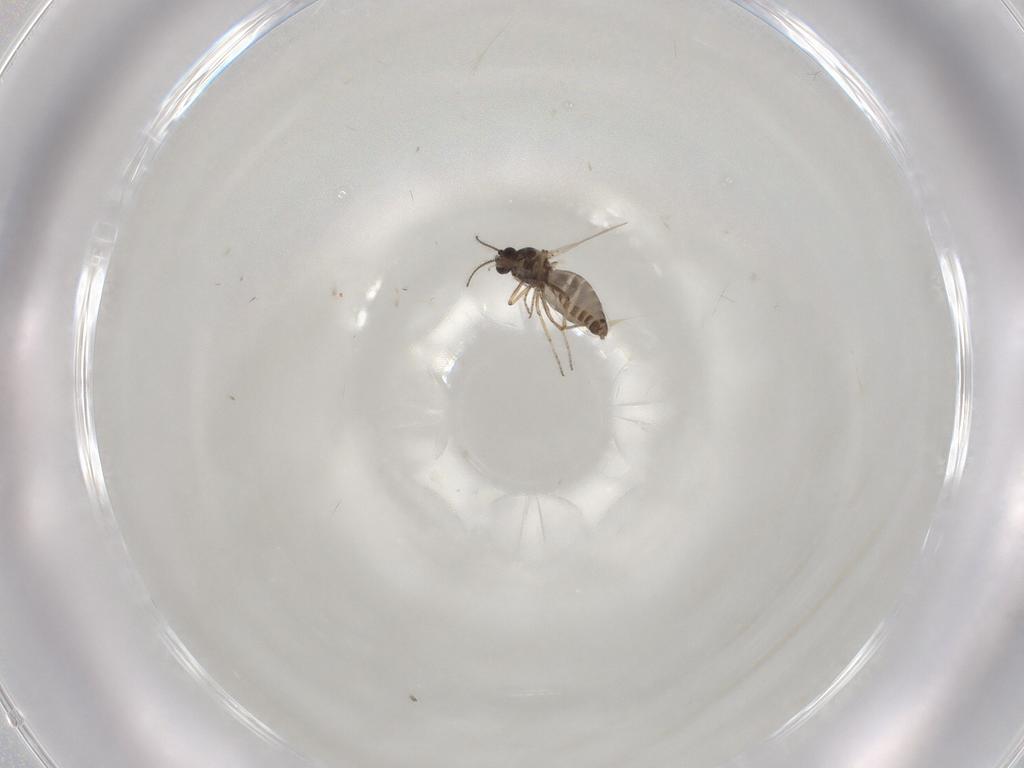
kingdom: Animalia
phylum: Arthropoda
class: Insecta
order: Diptera
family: Ceratopogonidae
